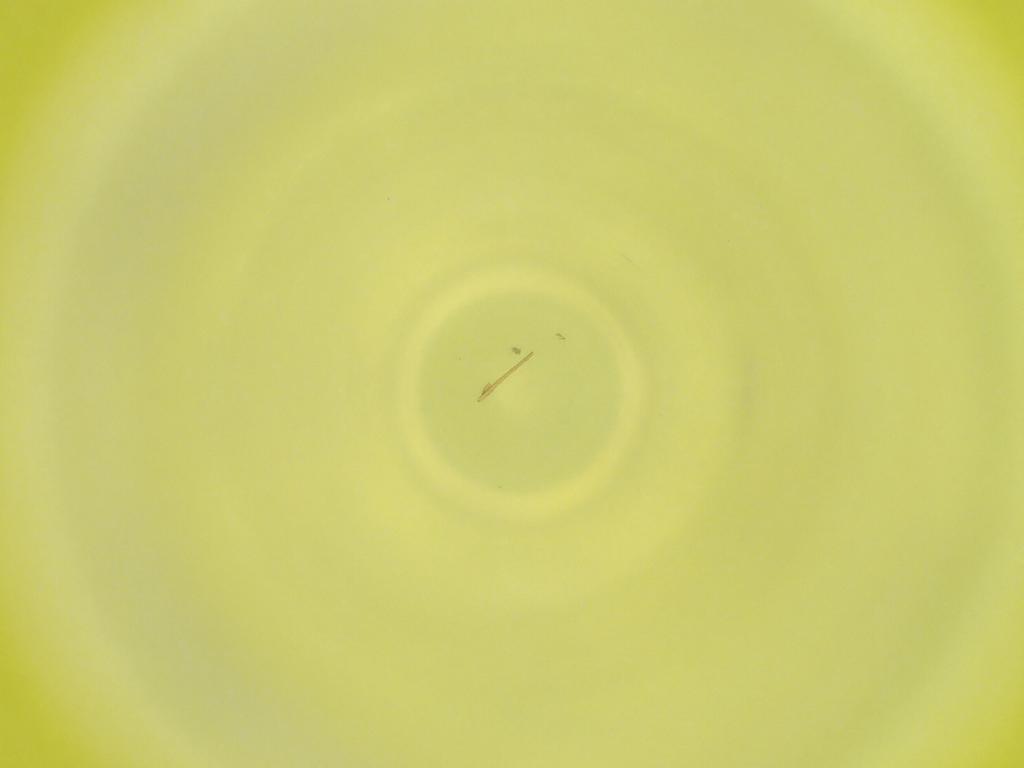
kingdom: Animalia
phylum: Arthropoda
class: Insecta
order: Diptera
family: Cecidomyiidae
